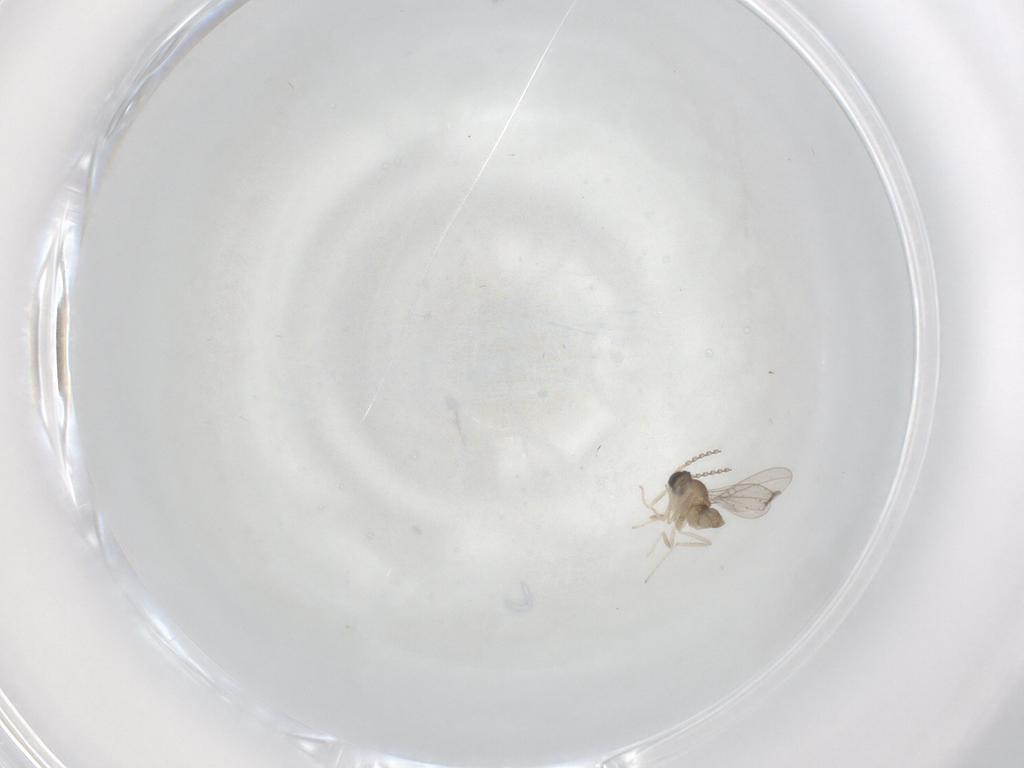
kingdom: Animalia
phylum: Arthropoda
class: Insecta
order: Diptera
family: Cecidomyiidae
